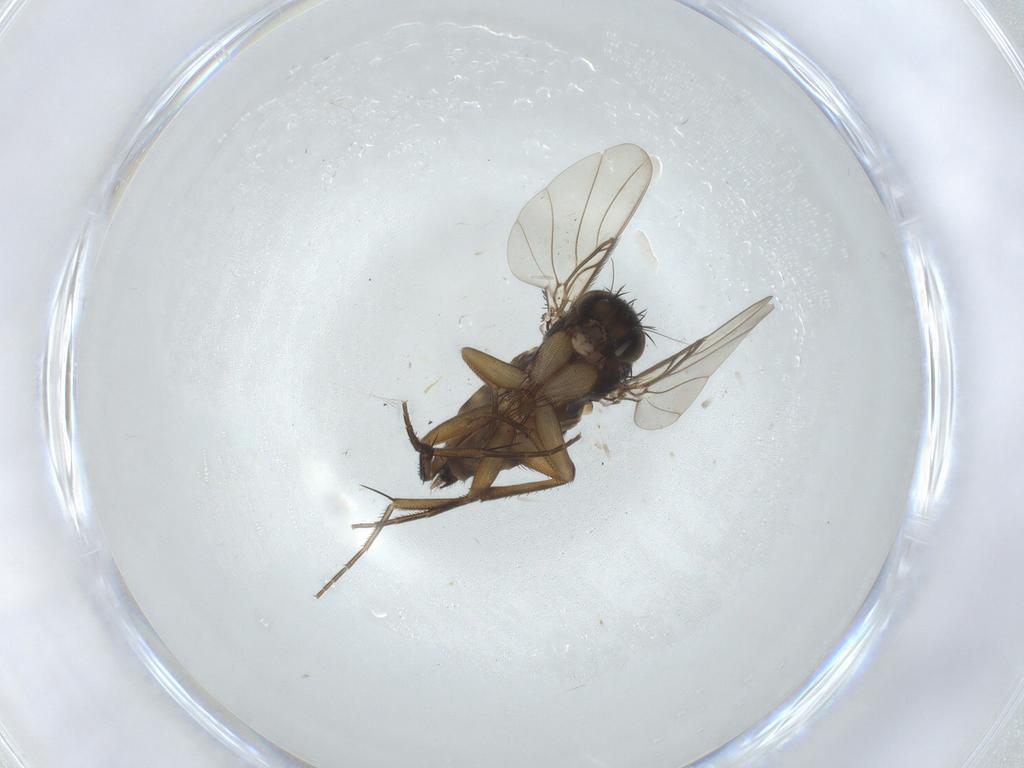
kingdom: Animalia
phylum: Arthropoda
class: Insecta
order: Diptera
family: Phoridae
